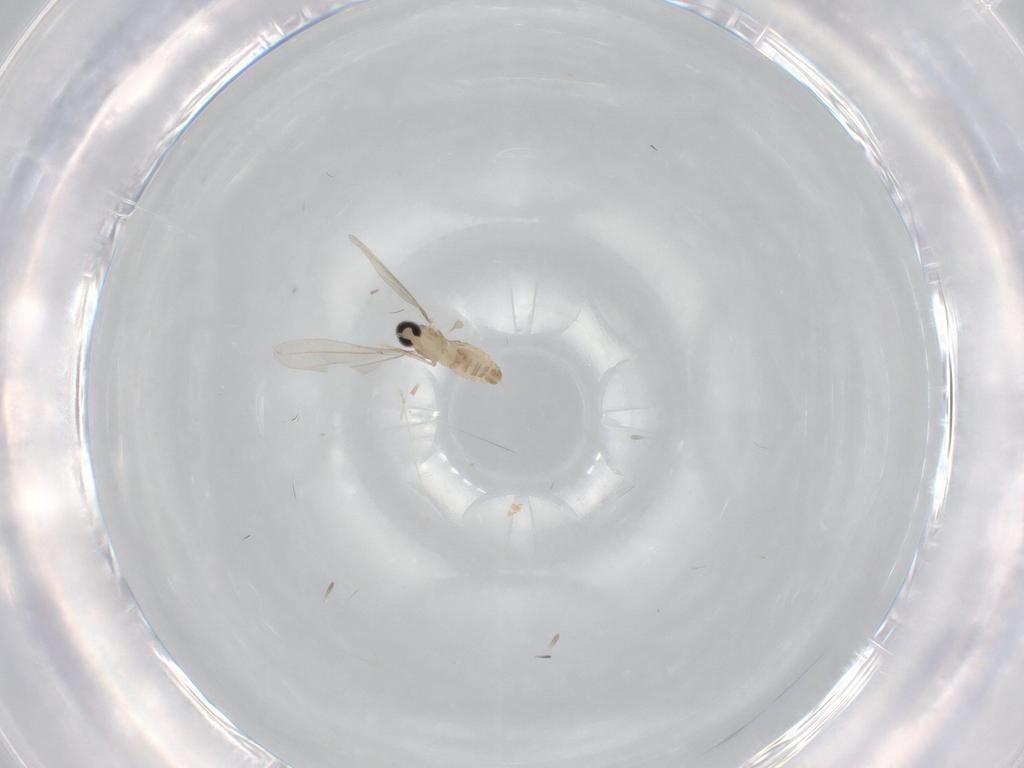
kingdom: Animalia
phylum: Arthropoda
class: Insecta
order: Diptera
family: Cecidomyiidae
